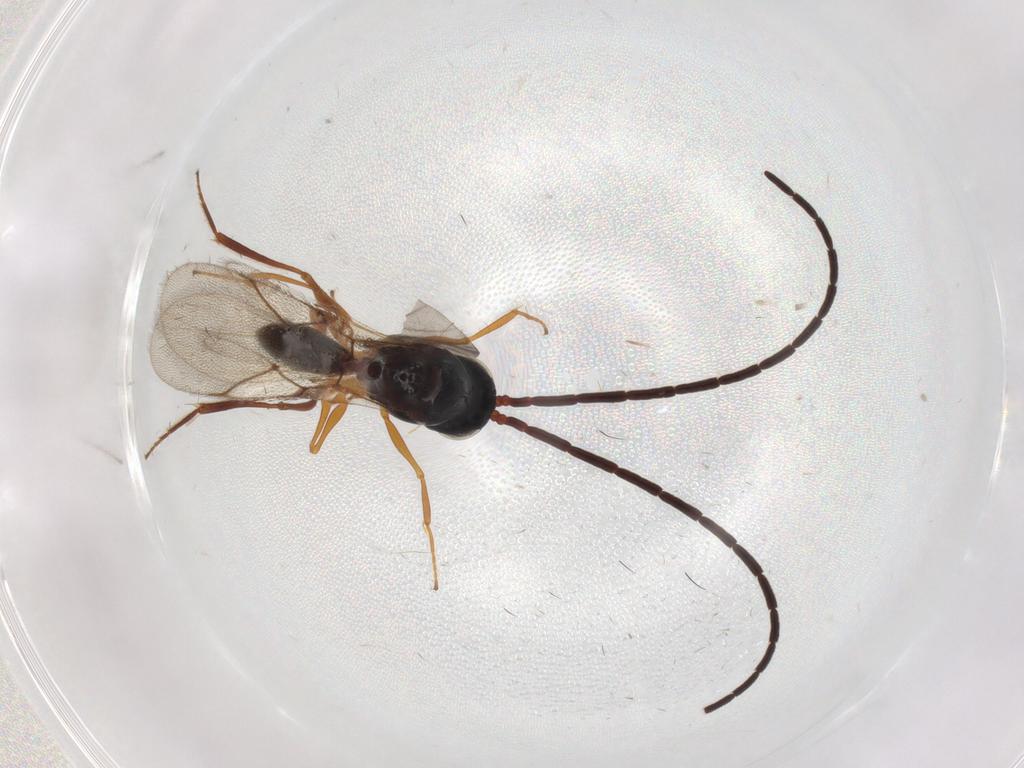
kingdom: Animalia
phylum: Arthropoda
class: Insecta
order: Hymenoptera
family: Figitidae
